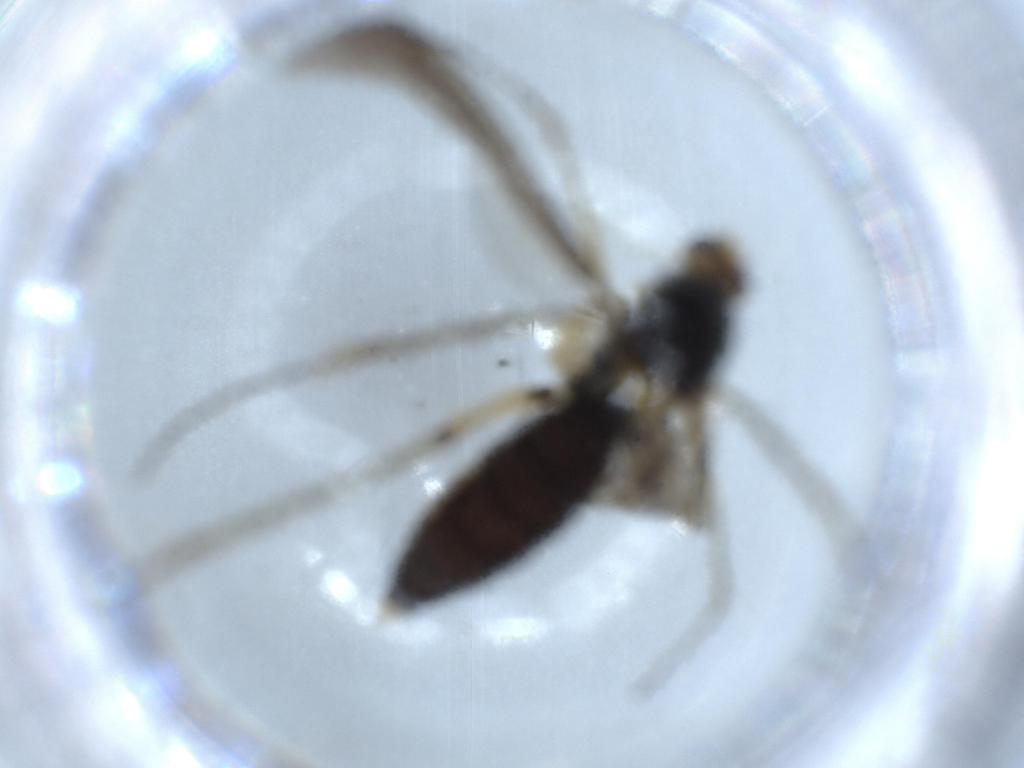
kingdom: Animalia
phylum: Arthropoda
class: Insecta
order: Diptera
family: Mycetophilidae
